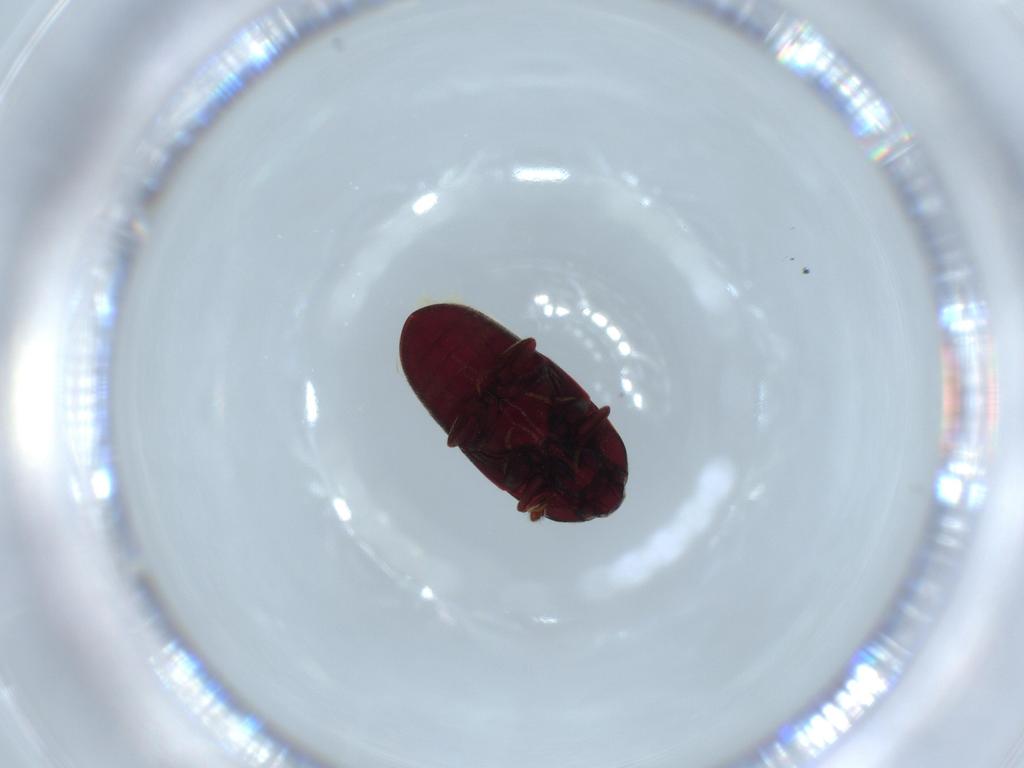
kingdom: Animalia
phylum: Arthropoda
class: Insecta
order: Coleoptera
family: Throscidae
